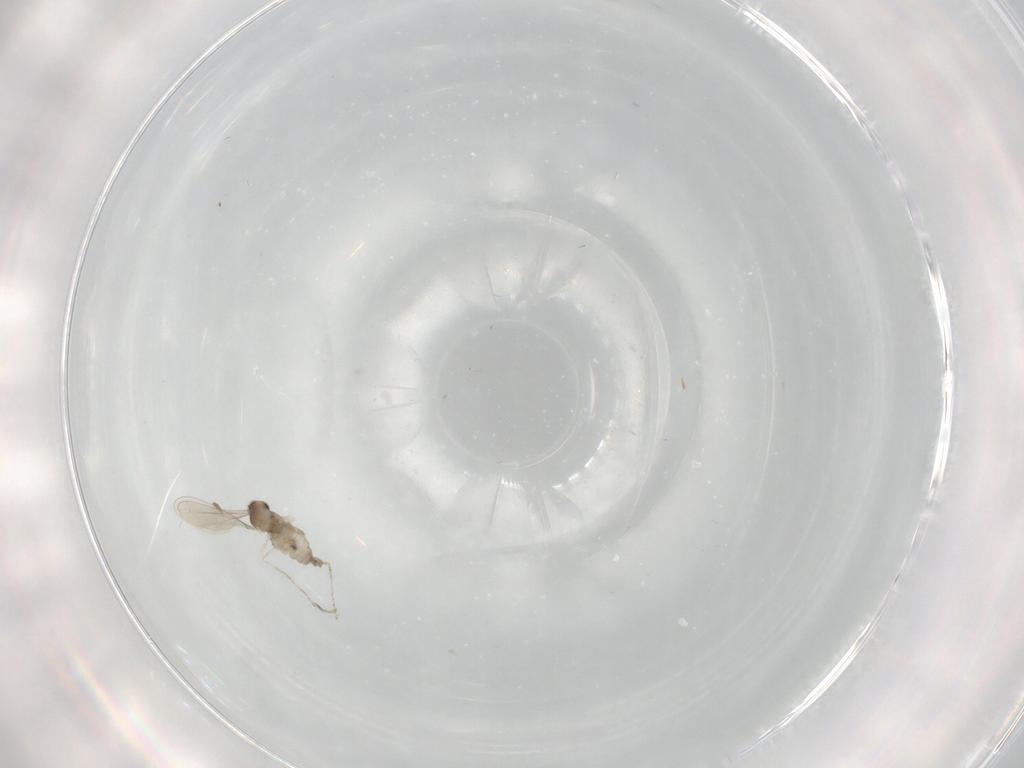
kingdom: Animalia
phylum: Arthropoda
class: Insecta
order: Diptera
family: Sciaridae
